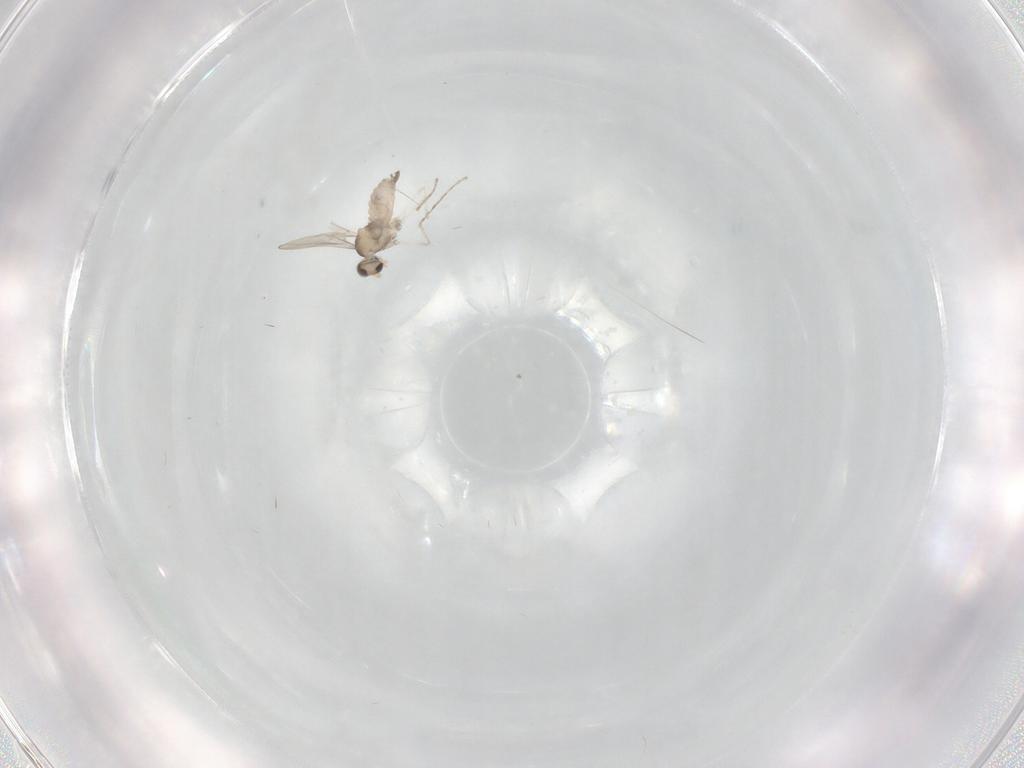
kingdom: Animalia
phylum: Arthropoda
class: Insecta
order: Diptera
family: Cecidomyiidae
